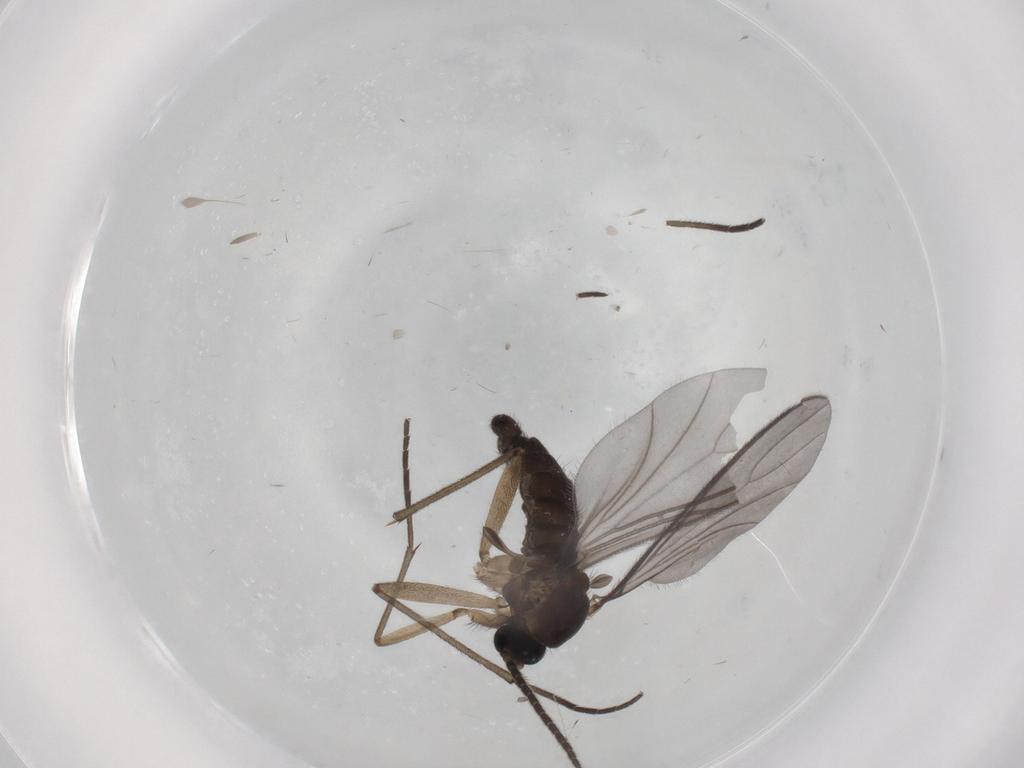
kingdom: Animalia
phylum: Arthropoda
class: Insecta
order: Diptera
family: Sciaridae
